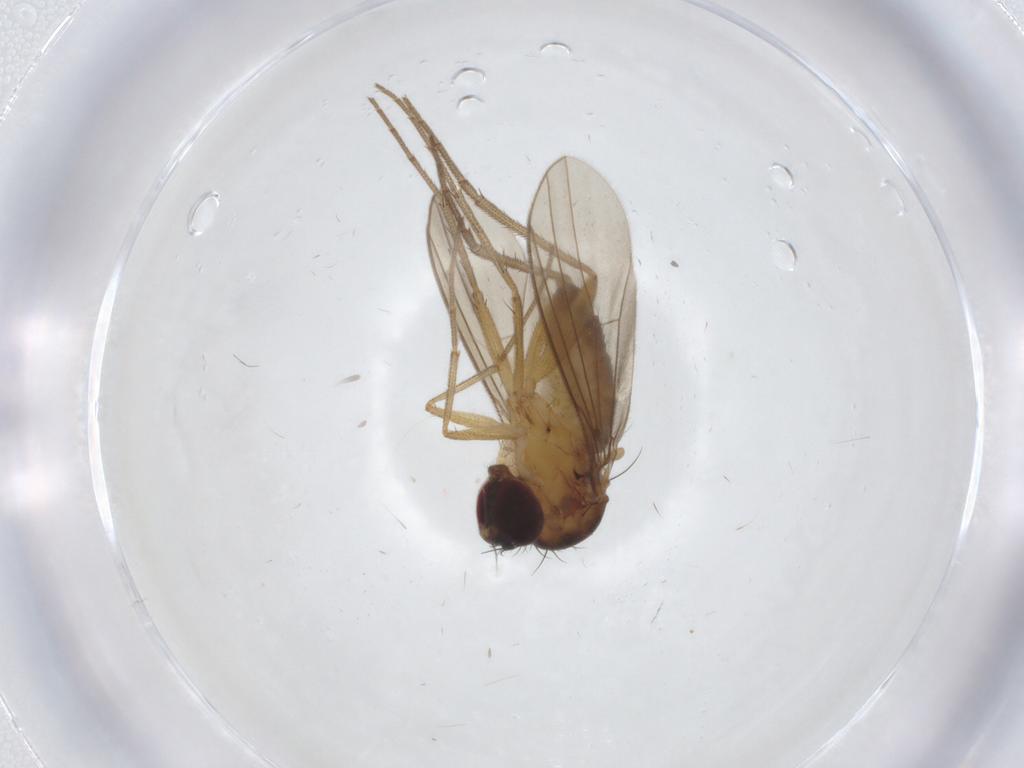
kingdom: Animalia
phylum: Arthropoda
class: Insecta
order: Diptera
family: Dolichopodidae
